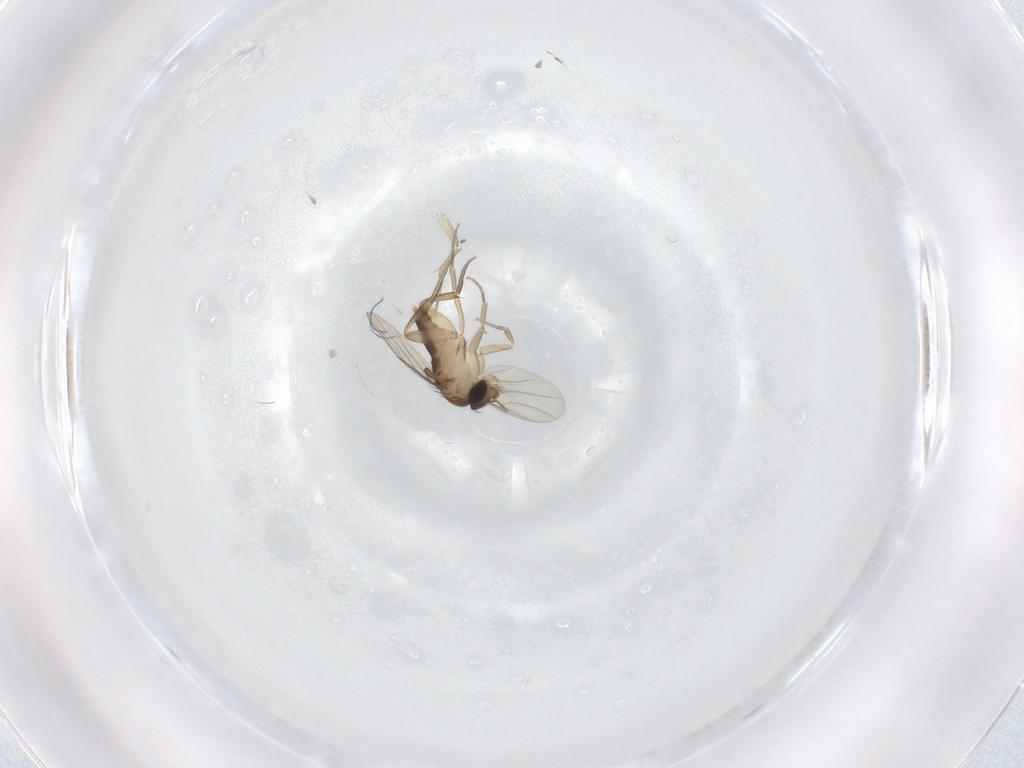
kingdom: Animalia
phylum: Arthropoda
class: Insecta
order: Diptera
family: Phoridae
